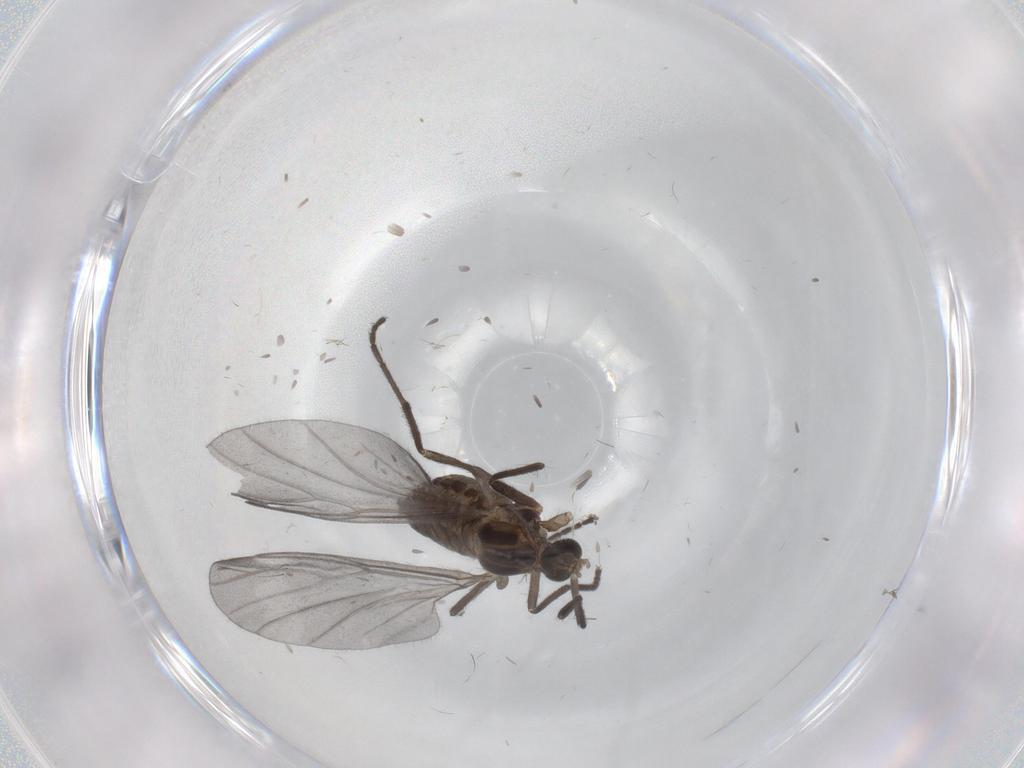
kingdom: Animalia
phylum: Arthropoda
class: Insecta
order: Diptera
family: Cecidomyiidae
